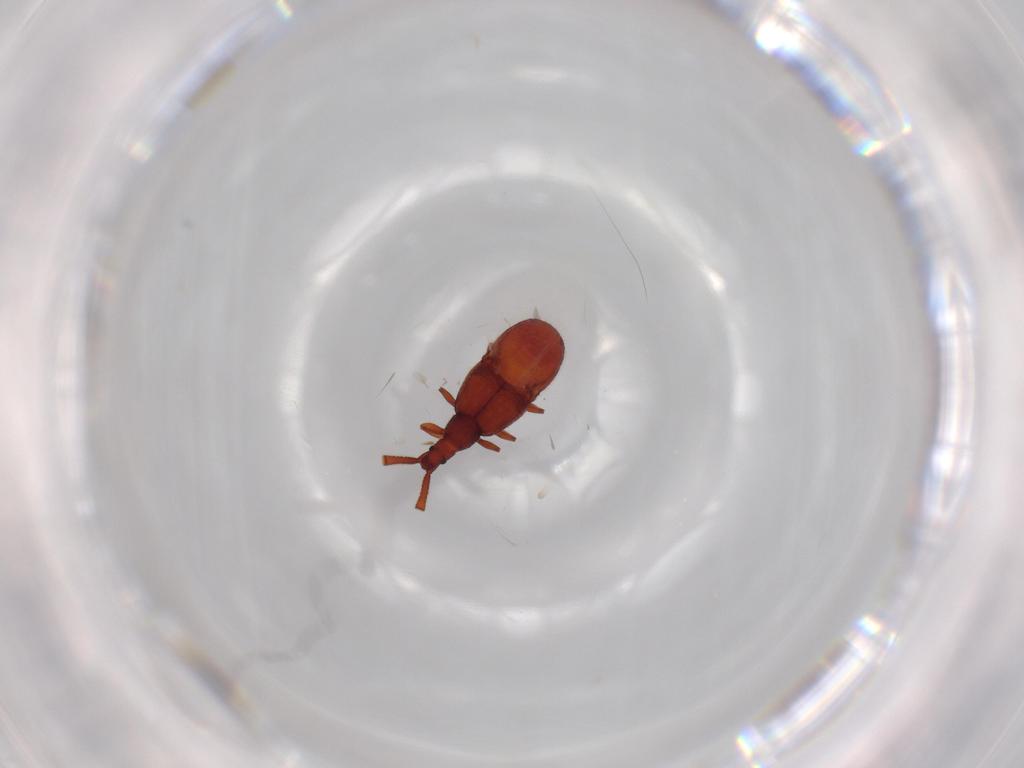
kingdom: Animalia
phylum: Arthropoda
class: Insecta
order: Coleoptera
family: Staphylinidae
